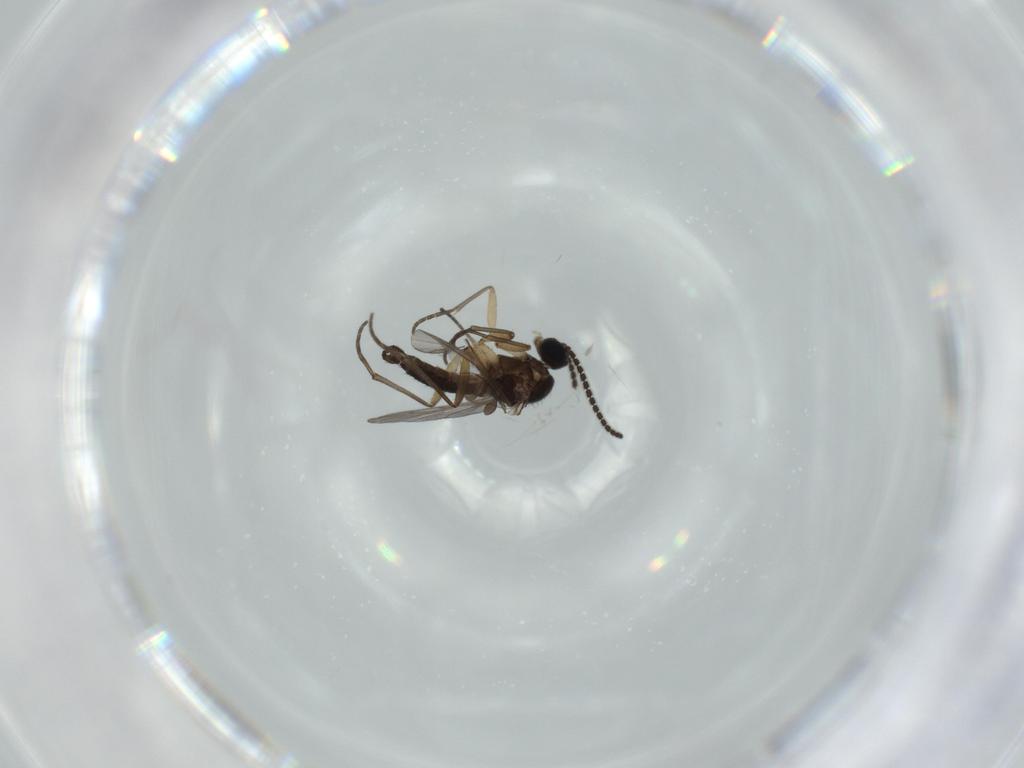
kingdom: Animalia
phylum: Arthropoda
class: Insecta
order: Diptera
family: Sciaridae
